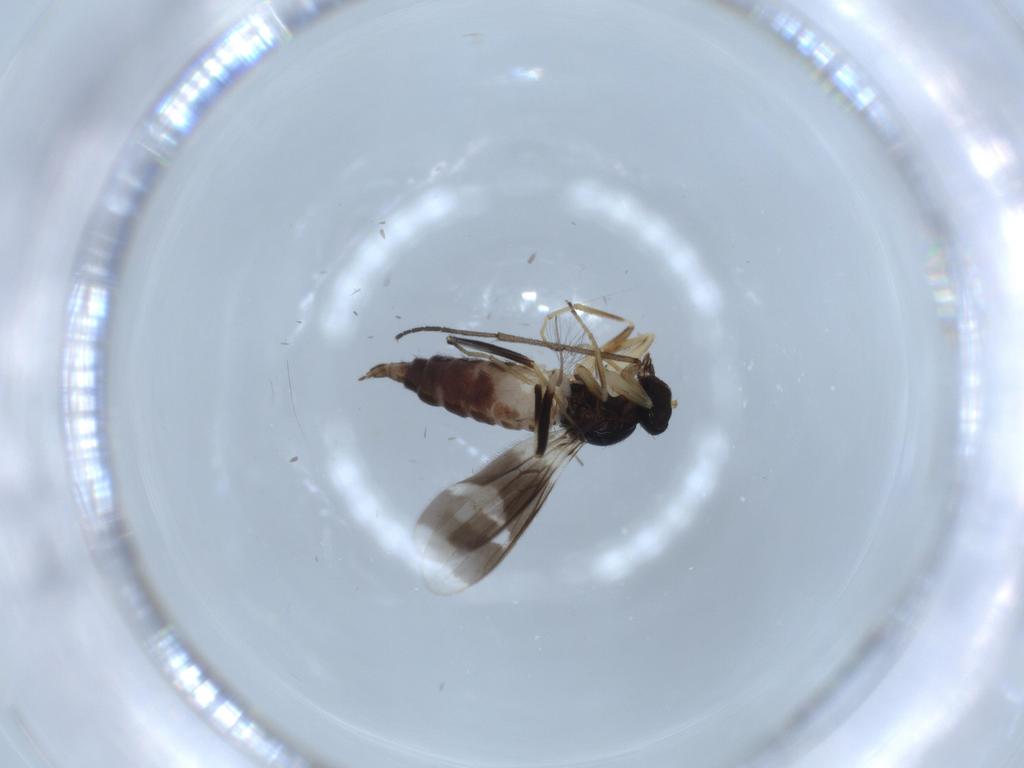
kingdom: Animalia
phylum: Arthropoda
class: Insecta
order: Diptera
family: Hybotidae
